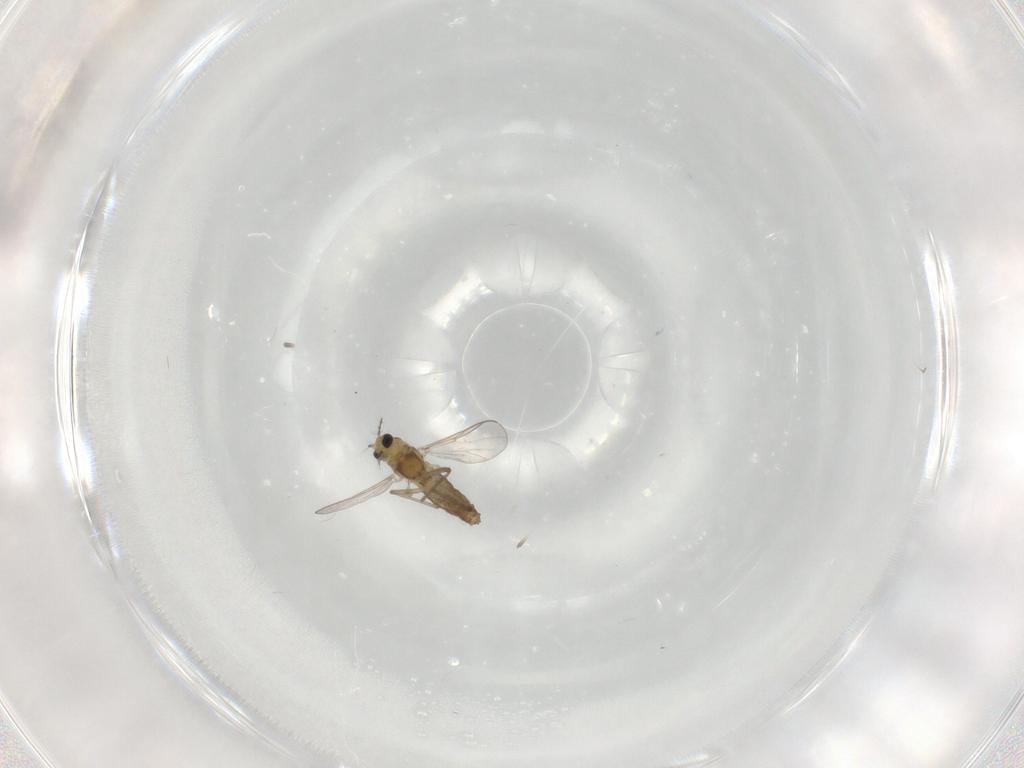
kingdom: Animalia
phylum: Arthropoda
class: Insecta
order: Diptera
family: Chironomidae
